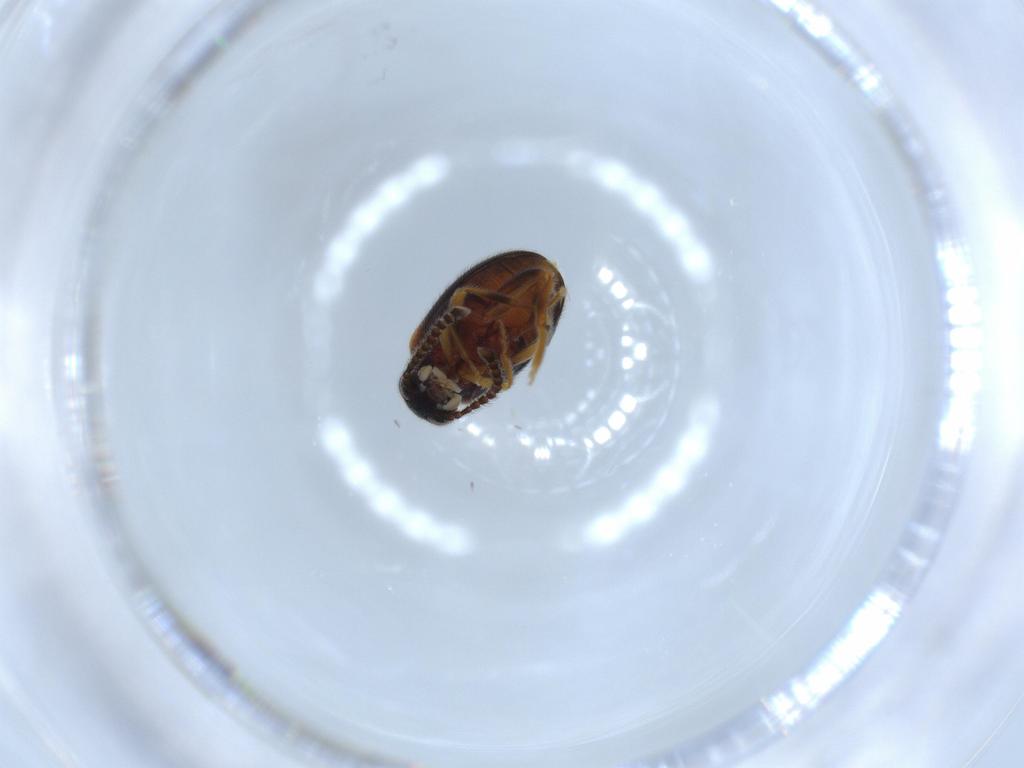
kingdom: Animalia
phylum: Arthropoda
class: Insecta
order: Coleoptera
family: Aderidae
